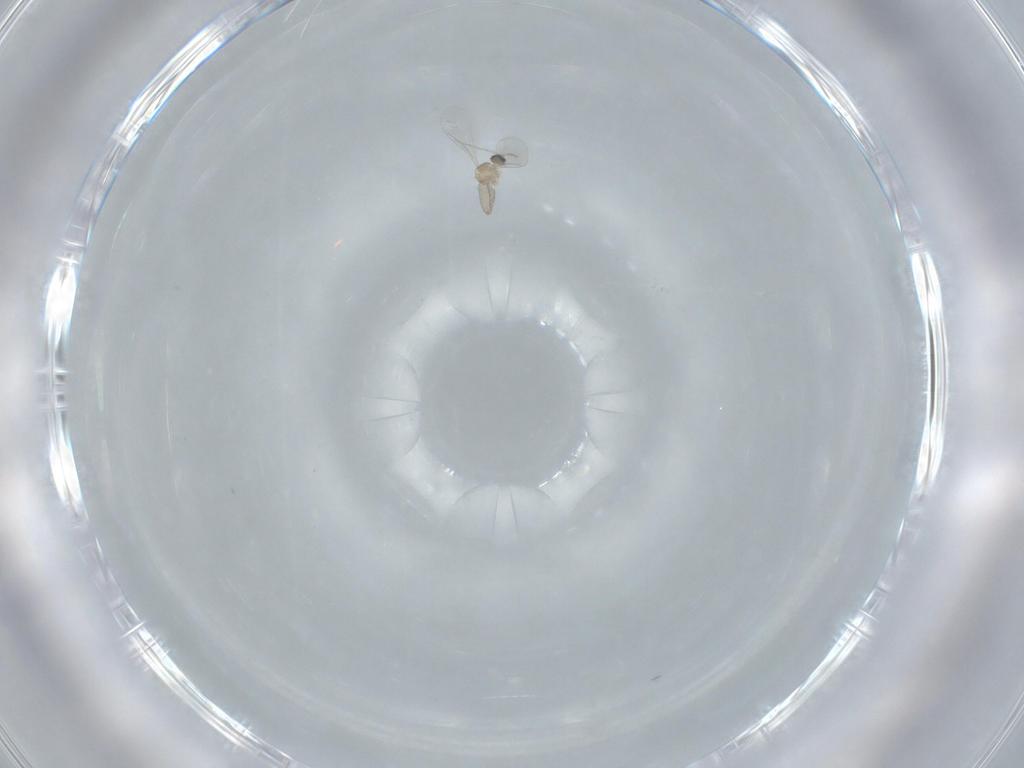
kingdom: Animalia
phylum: Arthropoda
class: Insecta
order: Diptera
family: Cecidomyiidae
